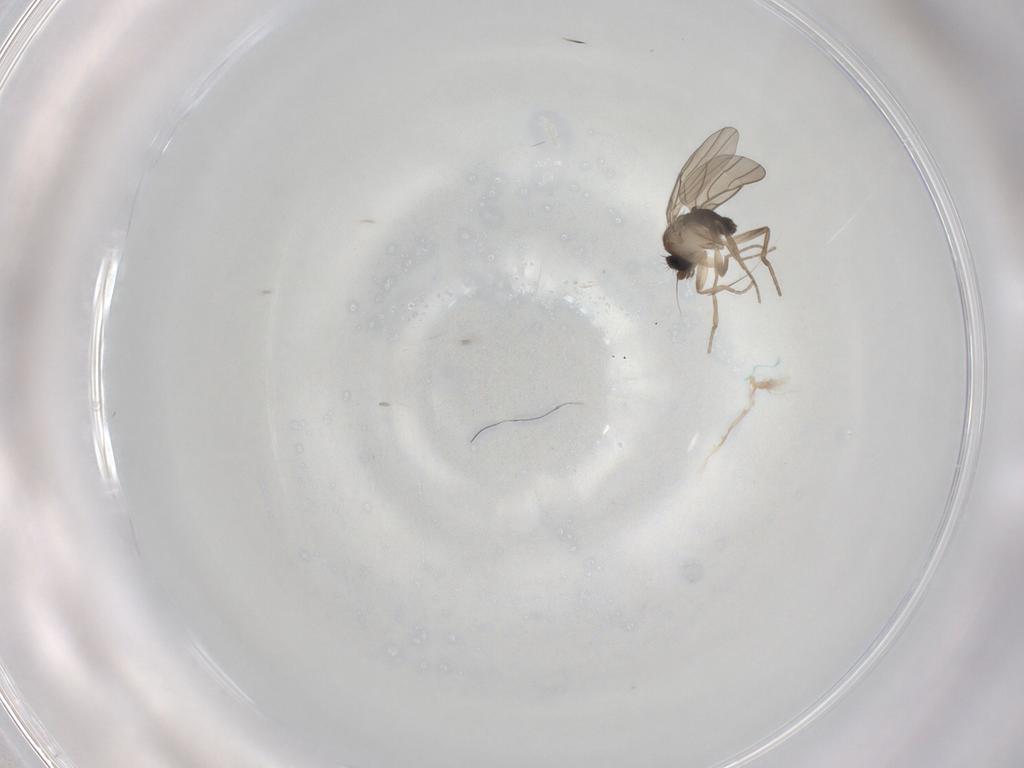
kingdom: Animalia
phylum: Arthropoda
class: Insecta
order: Diptera
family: Phoridae
